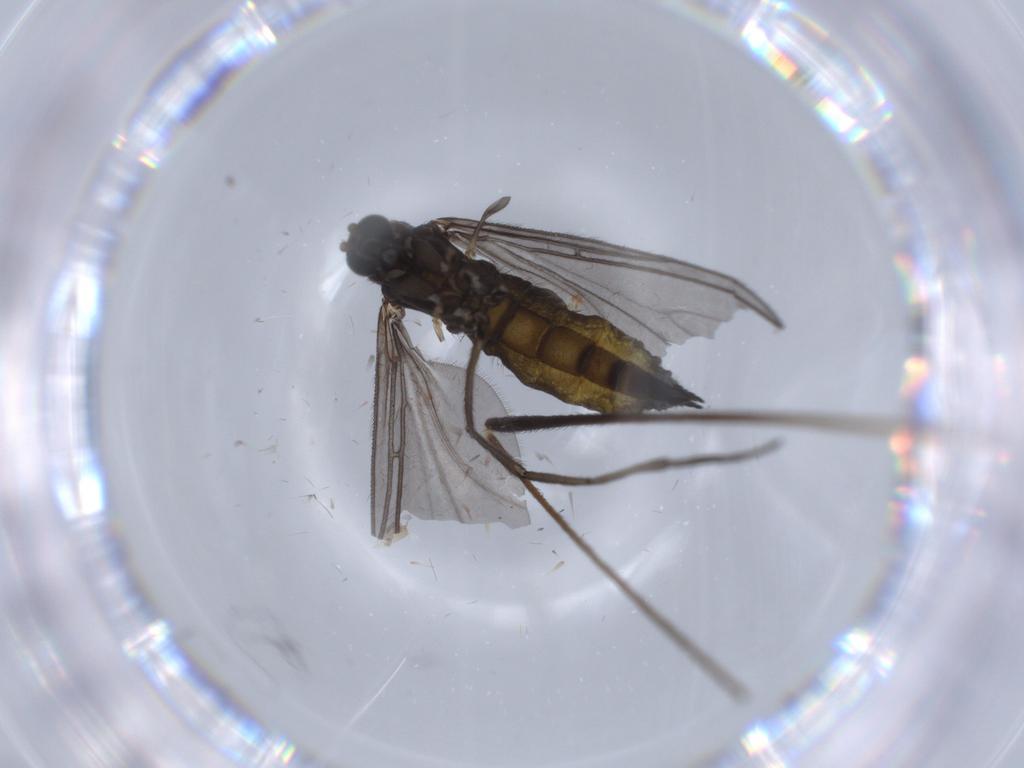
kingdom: Animalia
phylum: Arthropoda
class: Insecta
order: Diptera
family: Sciaridae
